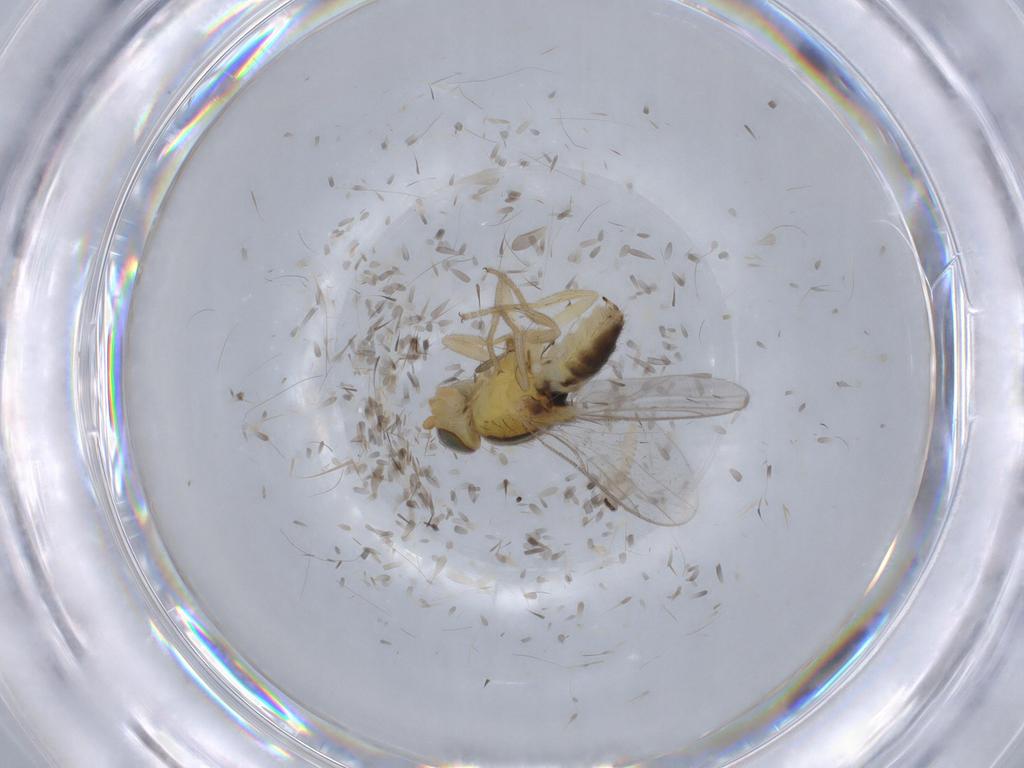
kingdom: Animalia
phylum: Arthropoda
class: Insecta
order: Diptera
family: Chloropidae
